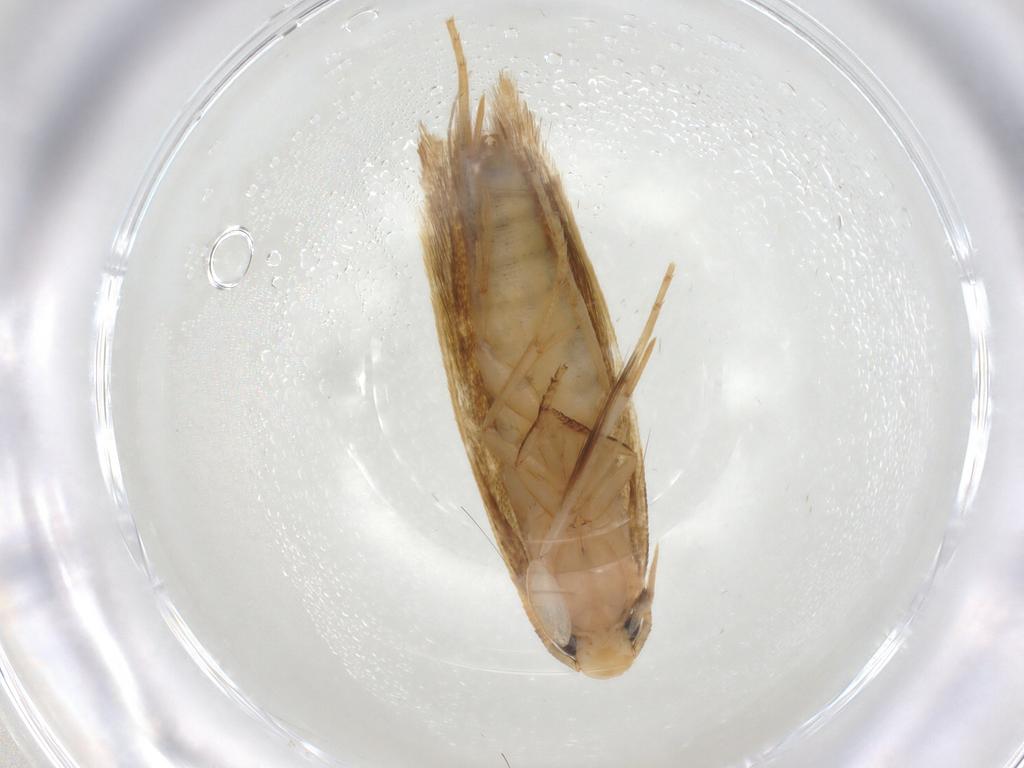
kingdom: Animalia
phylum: Arthropoda
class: Insecta
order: Lepidoptera
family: Tineidae
